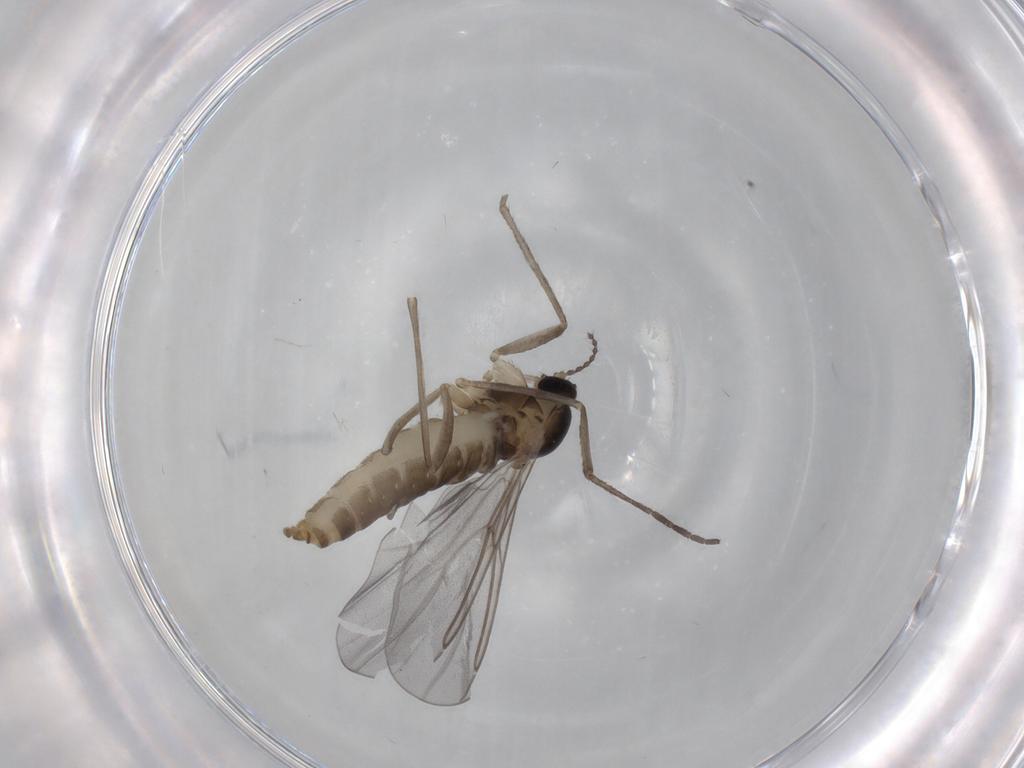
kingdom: Animalia
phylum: Arthropoda
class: Insecta
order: Diptera
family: Cecidomyiidae
